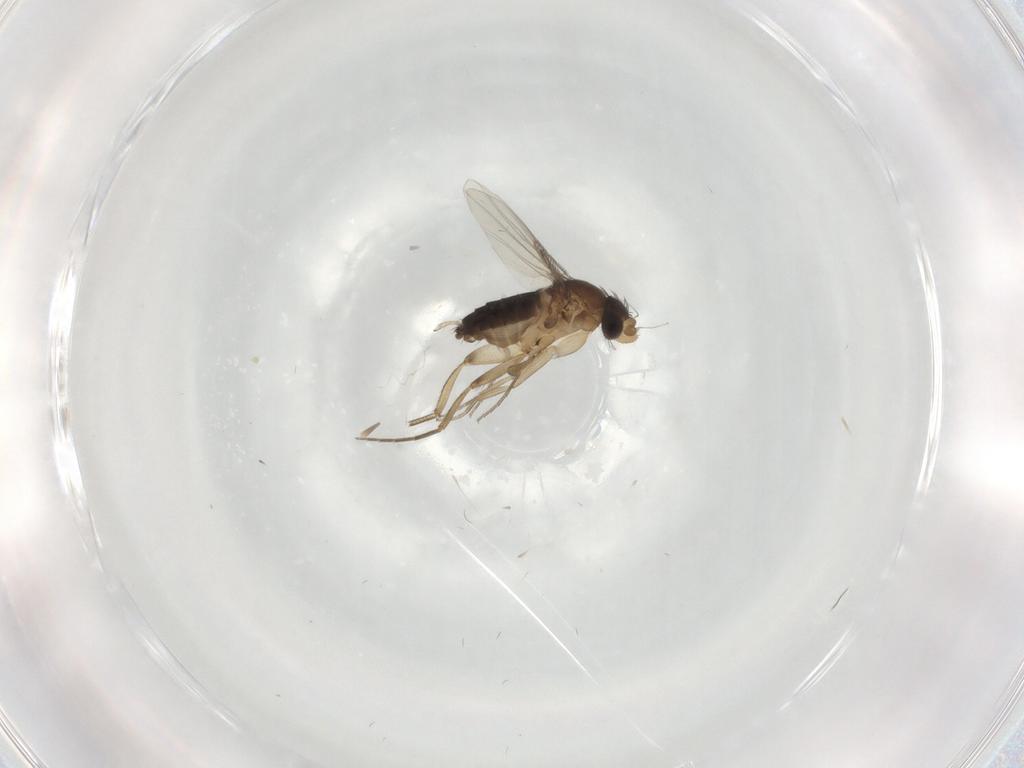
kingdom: Animalia
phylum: Arthropoda
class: Insecta
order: Diptera
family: Phoridae
